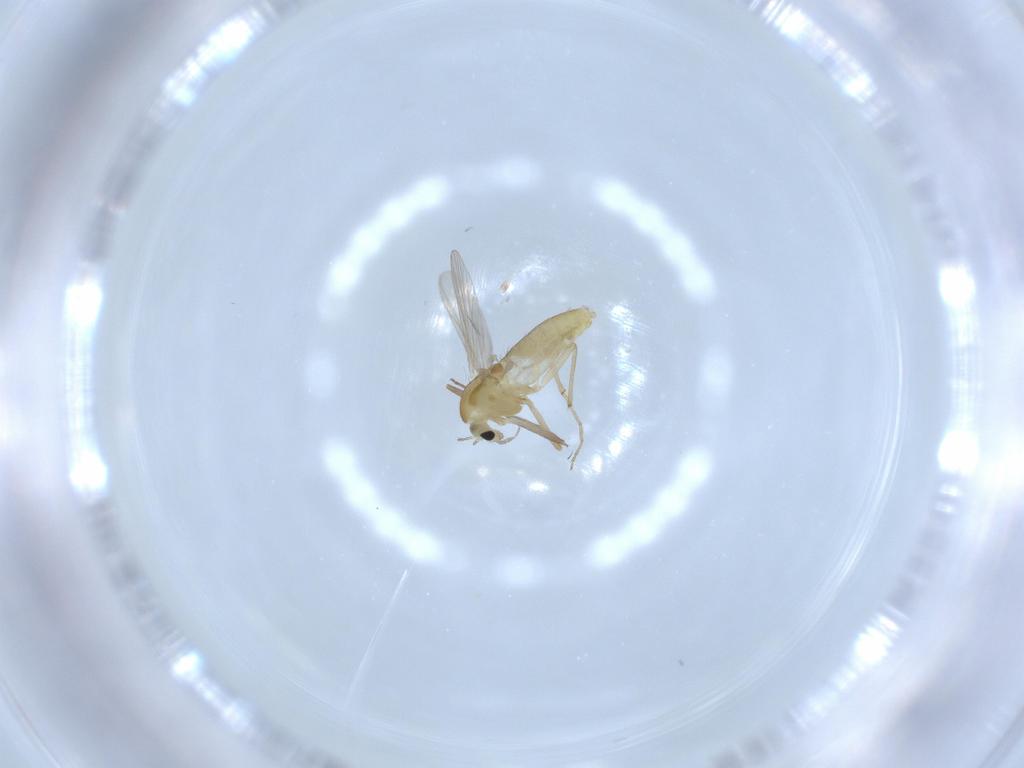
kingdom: Animalia
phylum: Arthropoda
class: Insecta
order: Diptera
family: Chironomidae
